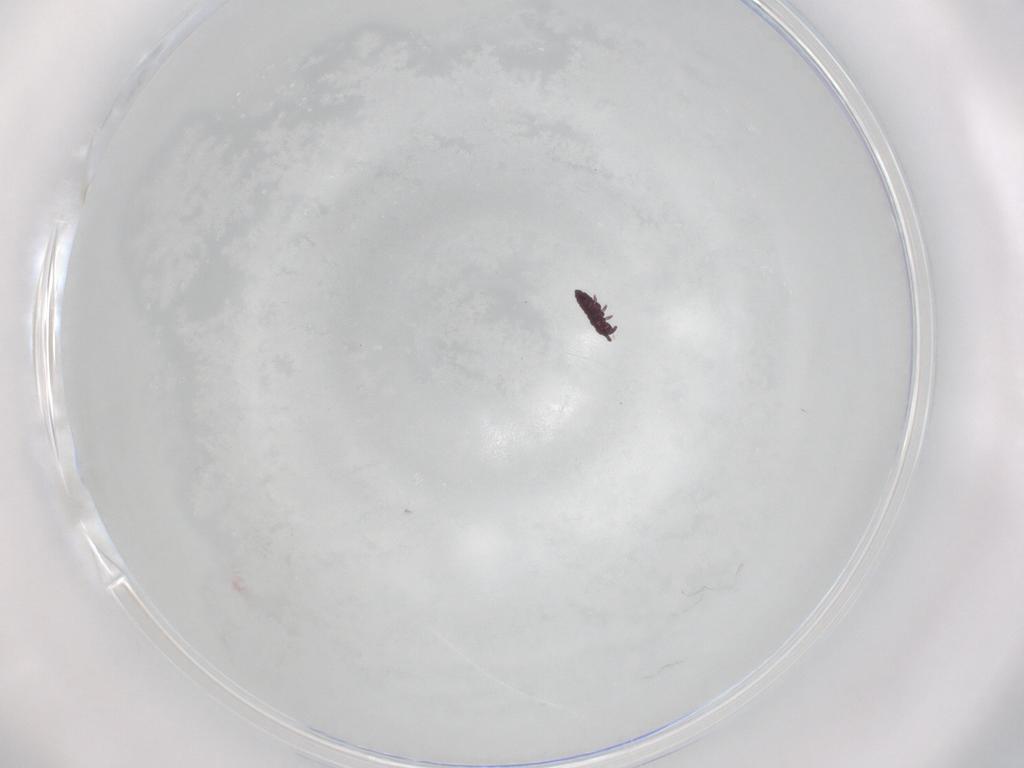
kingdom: Animalia
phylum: Arthropoda
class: Collembola
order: Poduromorpha
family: Hypogastruridae
